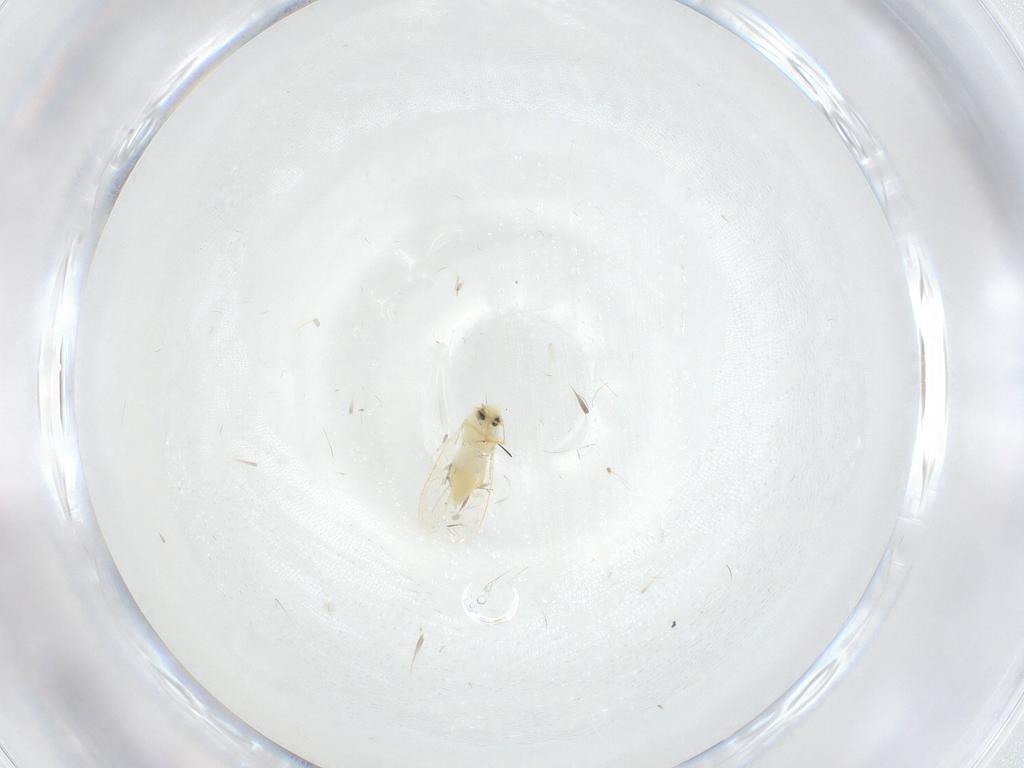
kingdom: Animalia
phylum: Arthropoda
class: Insecta
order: Hemiptera
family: Aleyrodidae
